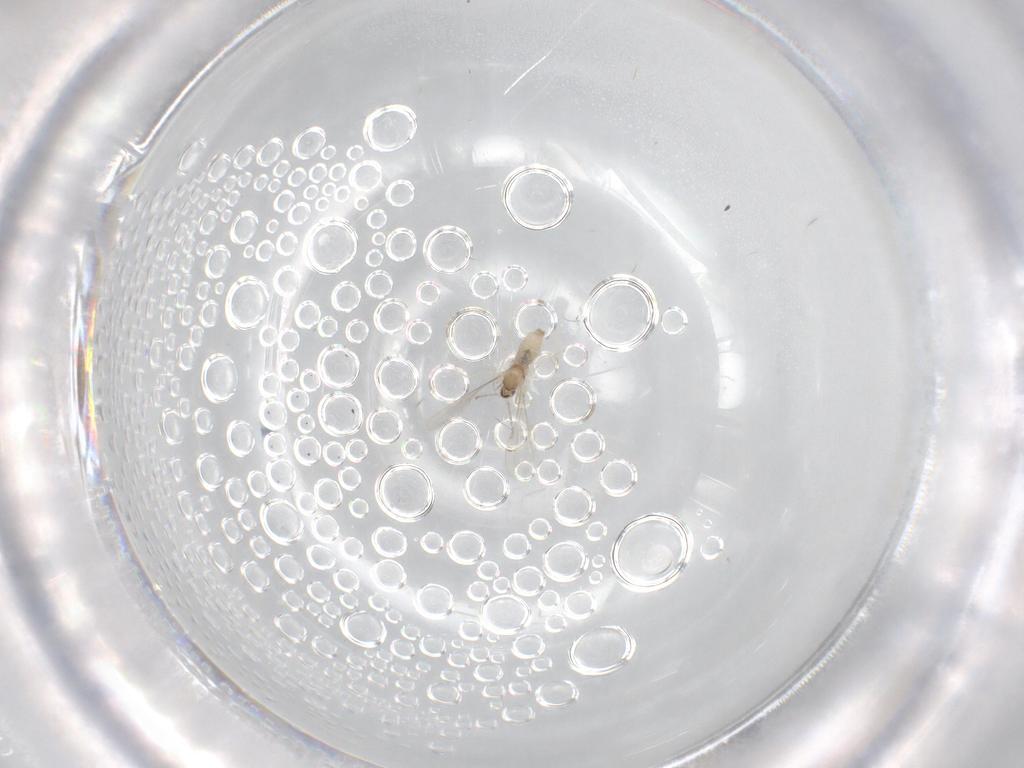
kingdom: Animalia
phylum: Arthropoda
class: Insecta
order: Diptera
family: Cecidomyiidae
